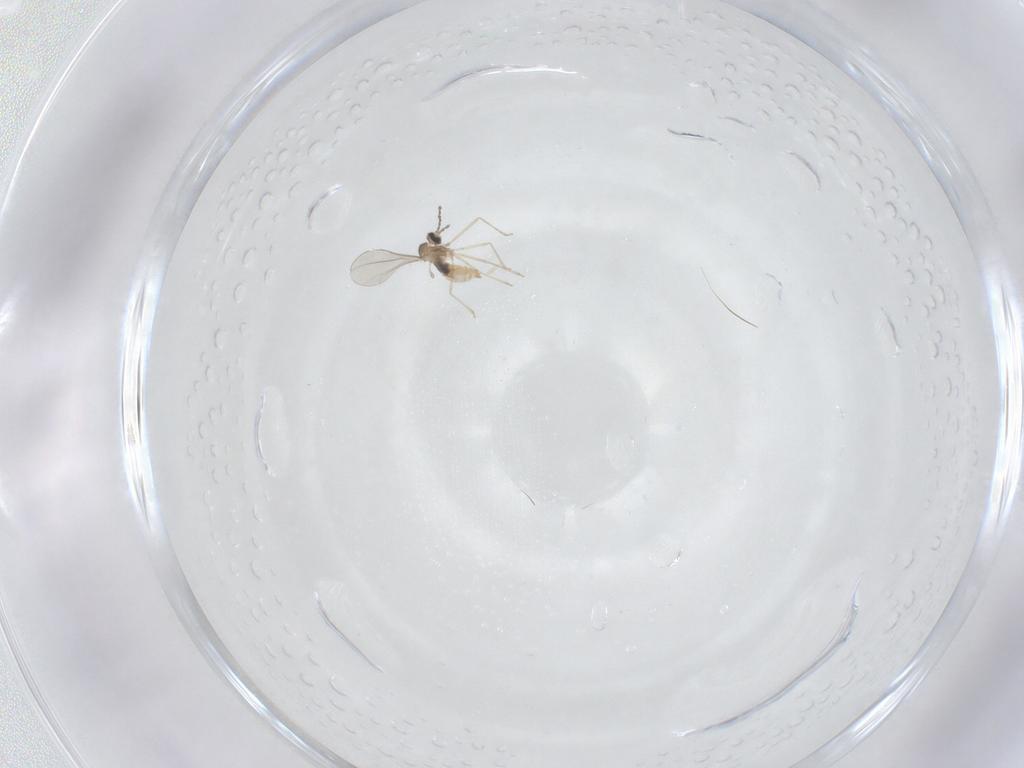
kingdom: Animalia
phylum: Arthropoda
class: Insecta
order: Diptera
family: Cecidomyiidae
